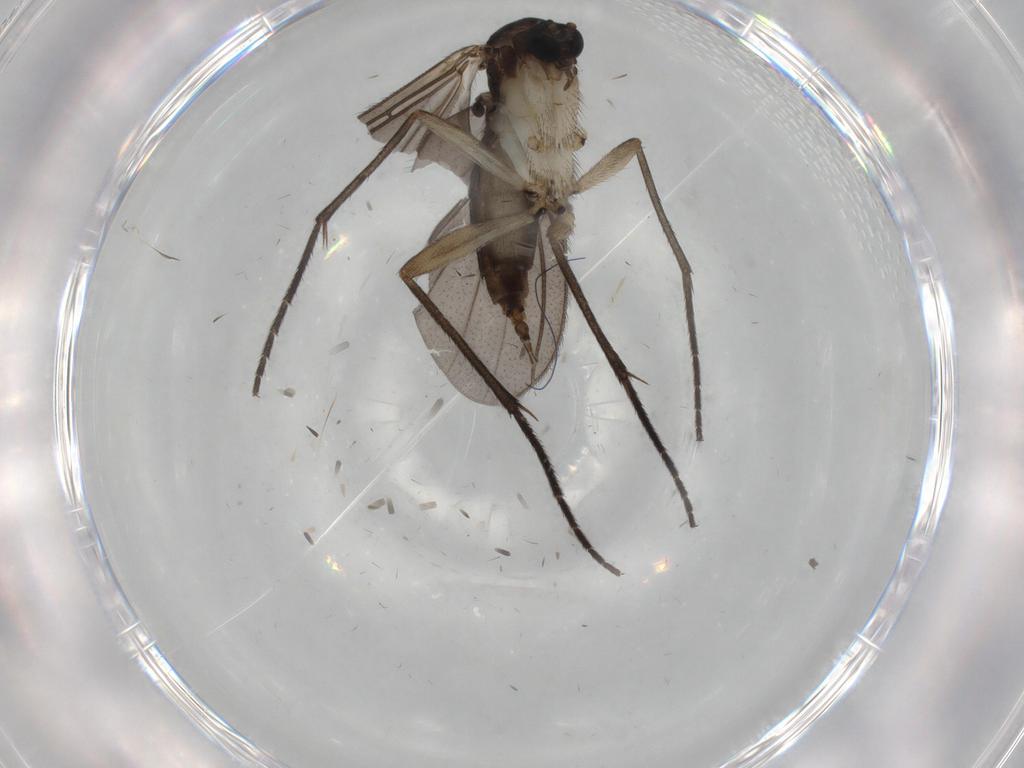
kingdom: Animalia
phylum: Arthropoda
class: Insecta
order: Diptera
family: Sciaridae
